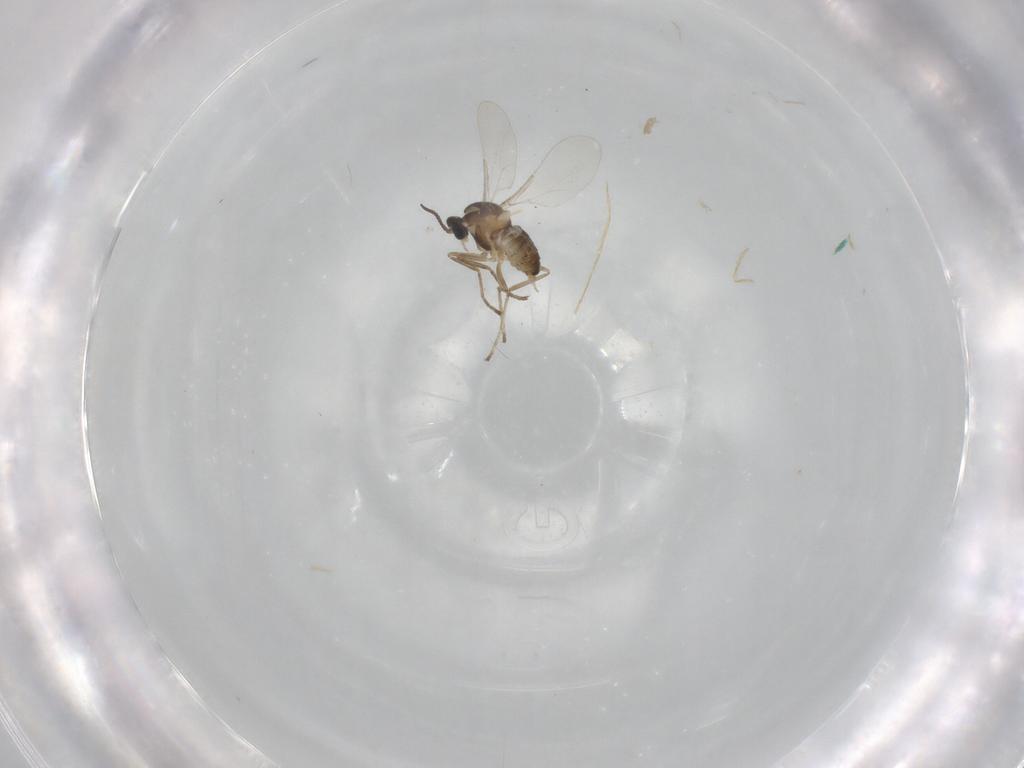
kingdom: Animalia
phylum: Arthropoda
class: Insecta
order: Diptera
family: Cecidomyiidae
